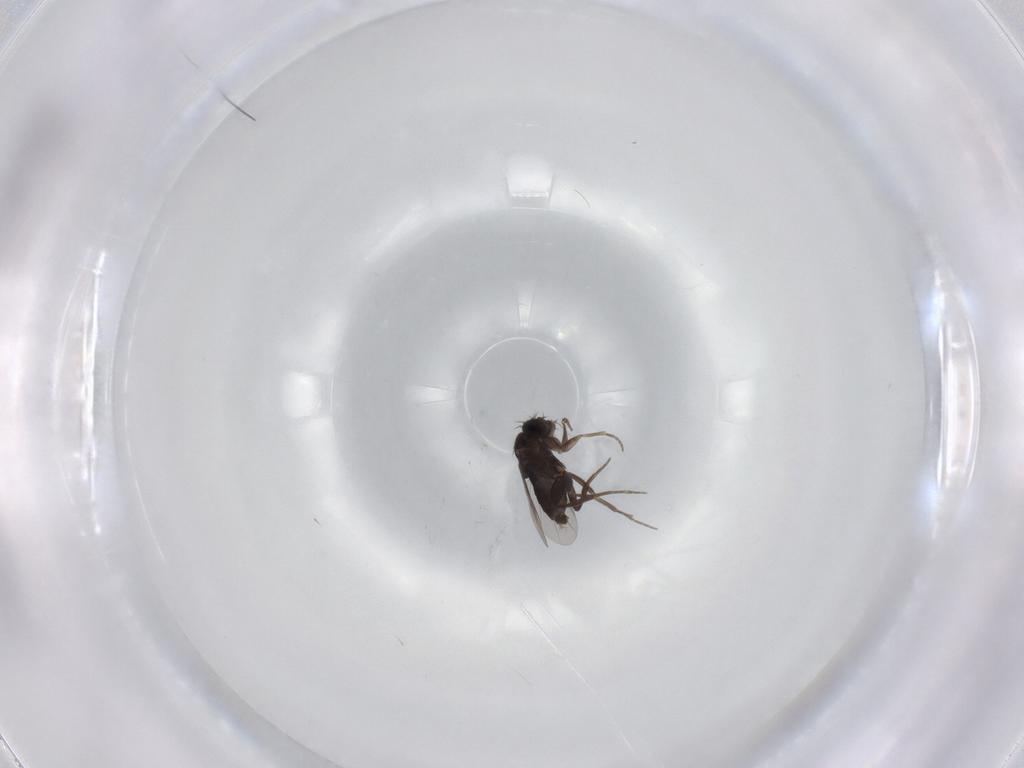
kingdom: Animalia
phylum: Arthropoda
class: Insecta
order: Diptera
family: Phoridae
